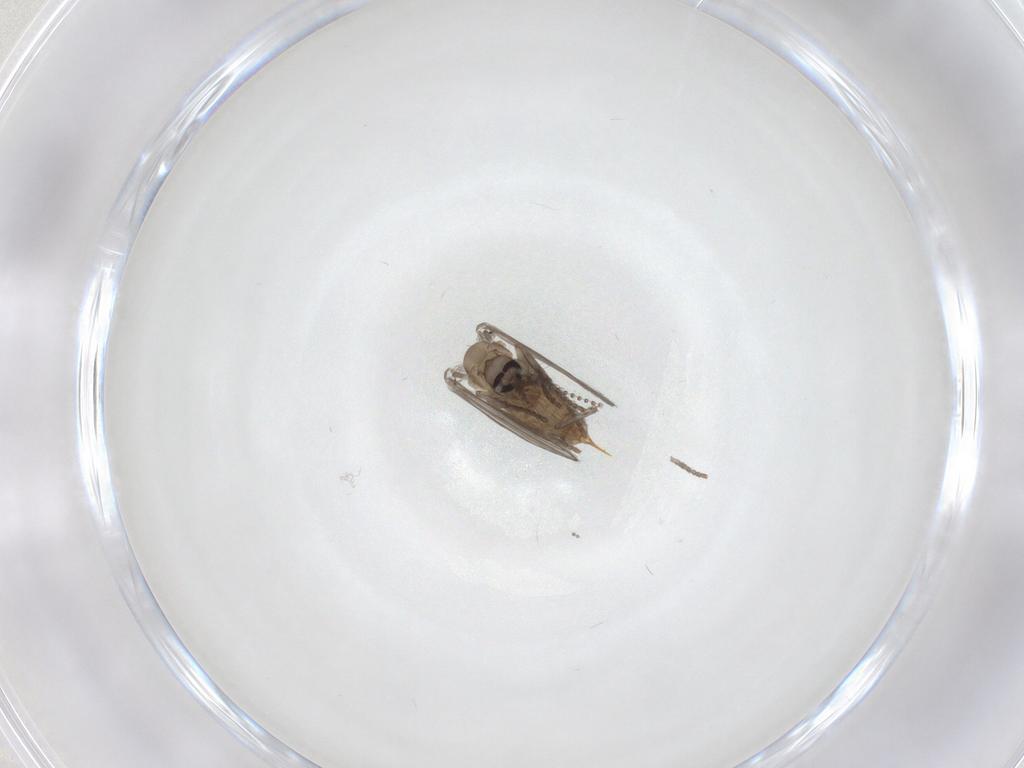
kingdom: Animalia
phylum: Arthropoda
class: Insecta
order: Diptera
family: Psychodidae
